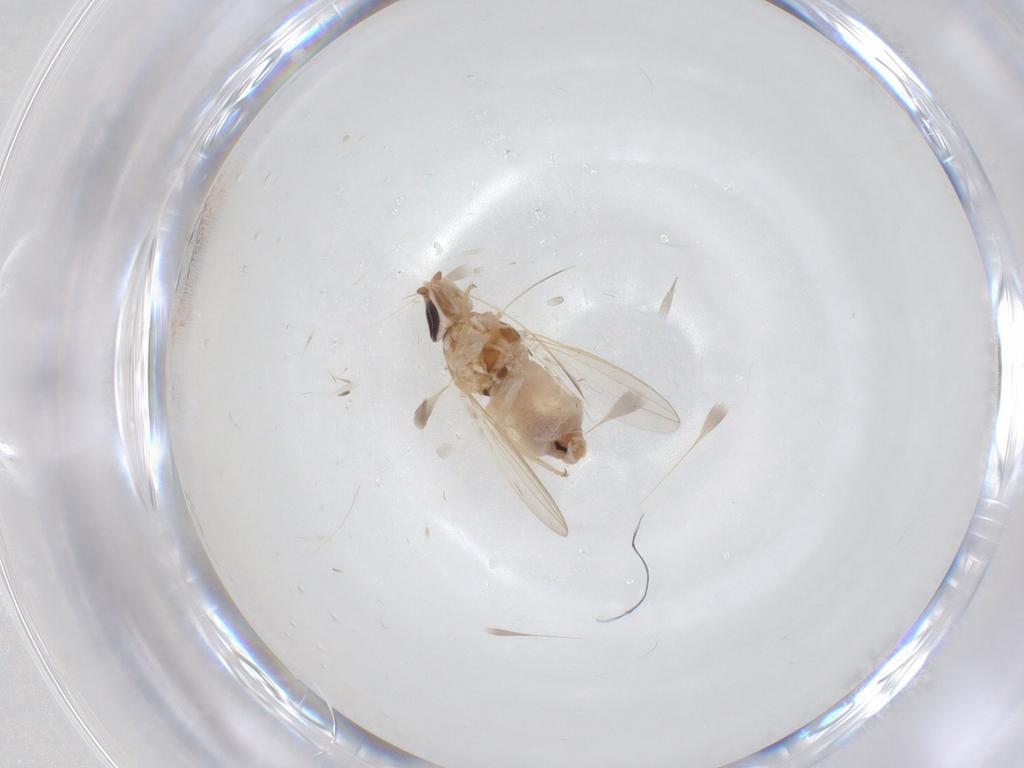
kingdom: Animalia
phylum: Arthropoda
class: Insecta
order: Diptera
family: Chloropidae
